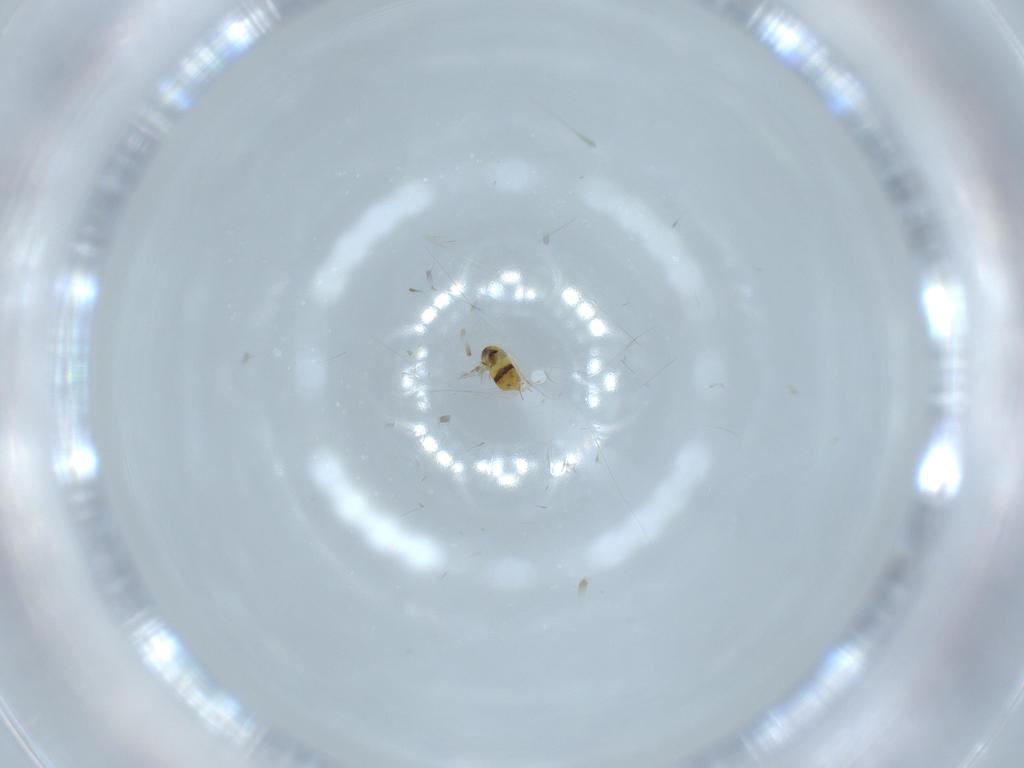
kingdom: Animalia
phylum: Arthropoda
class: Insecta
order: Hymenoptera
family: Signiphoridae
